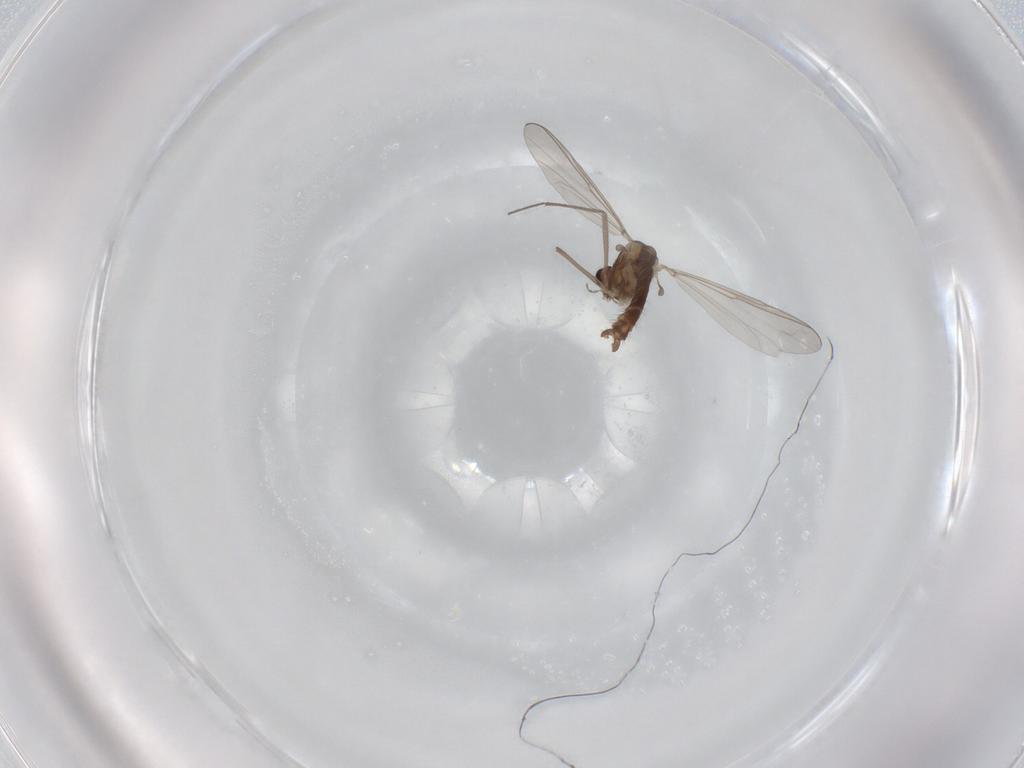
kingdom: Animalia
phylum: Arthropoda
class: Insecta
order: Diptera
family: Chironomidae
